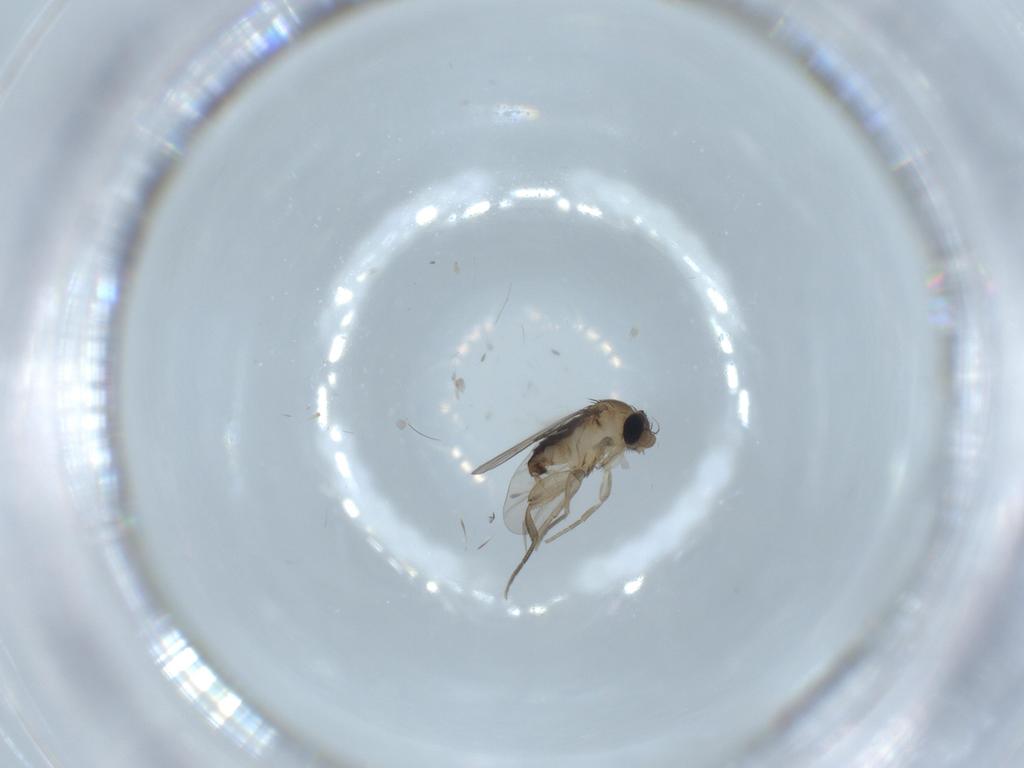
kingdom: Animalia
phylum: Arthropoda
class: Insecta
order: Diptera
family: Phoridae
